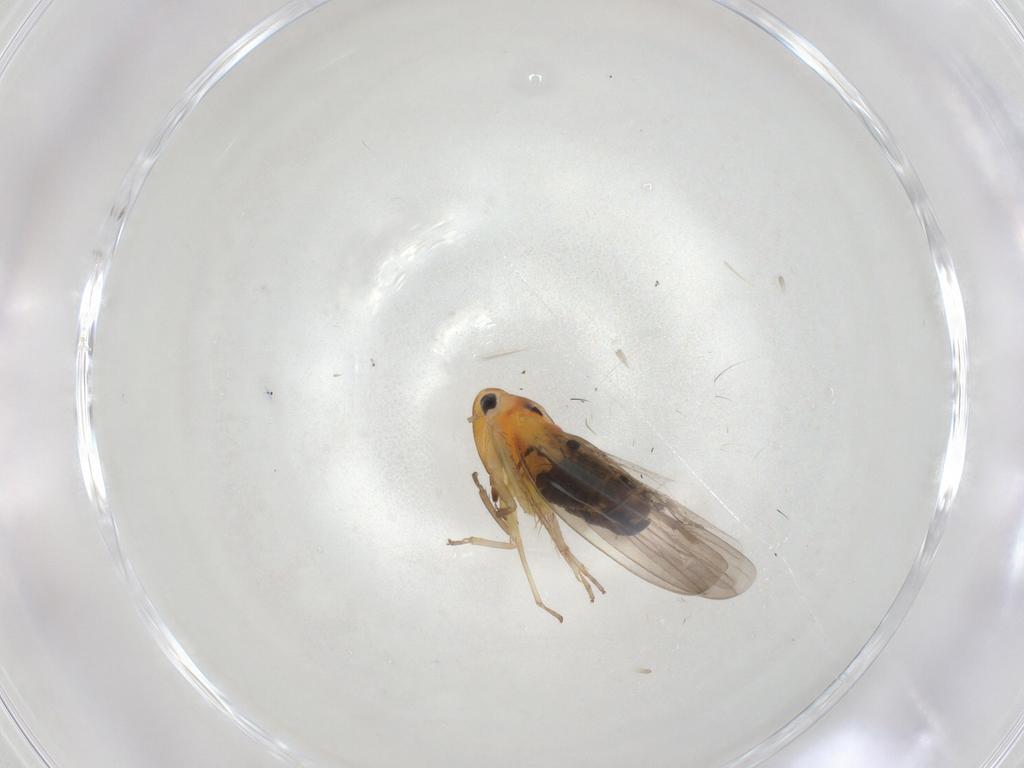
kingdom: Animalia
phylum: Arthropoda
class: Insecta
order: Hemiptera
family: Cicadellidae
